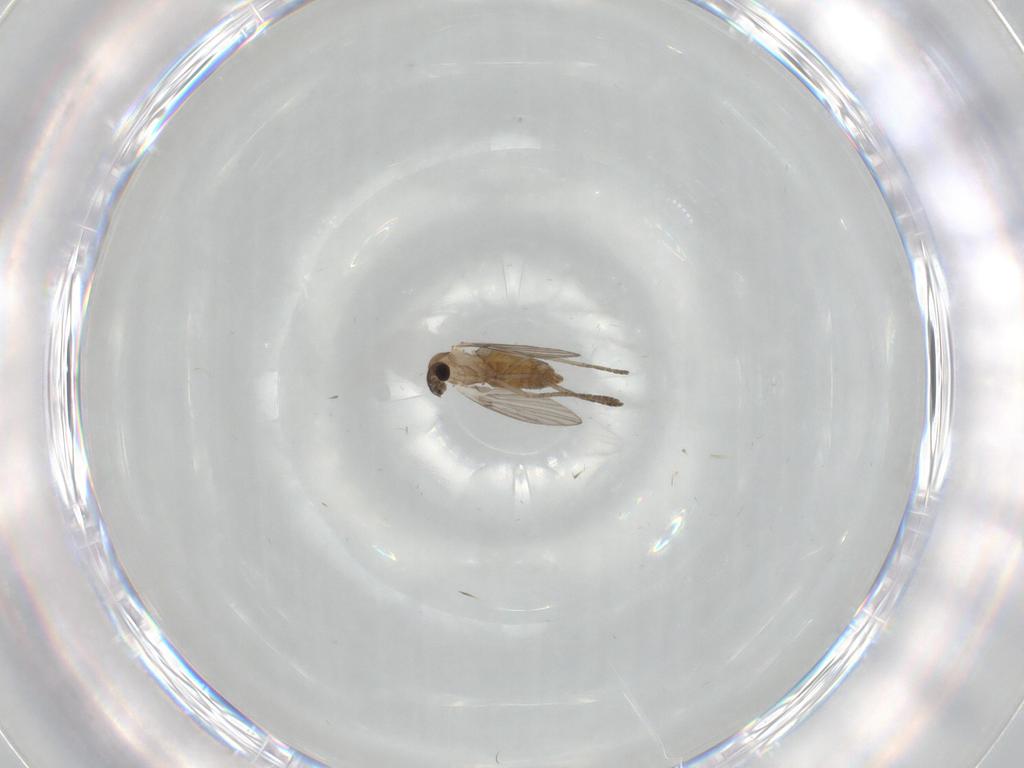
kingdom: Animalia
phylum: Arthropoda
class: Insecta
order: Diptera
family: Psychodidae
